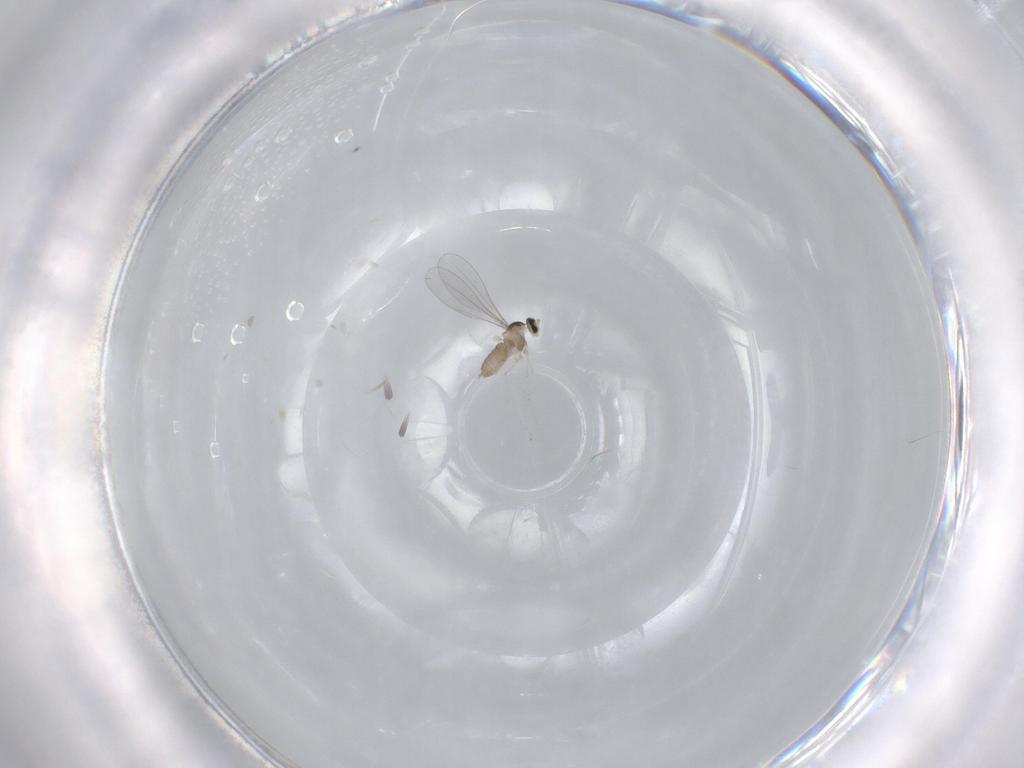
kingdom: Animalia
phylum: Arthropoda
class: Insecta
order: Diptera
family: Cecidomyiidae
